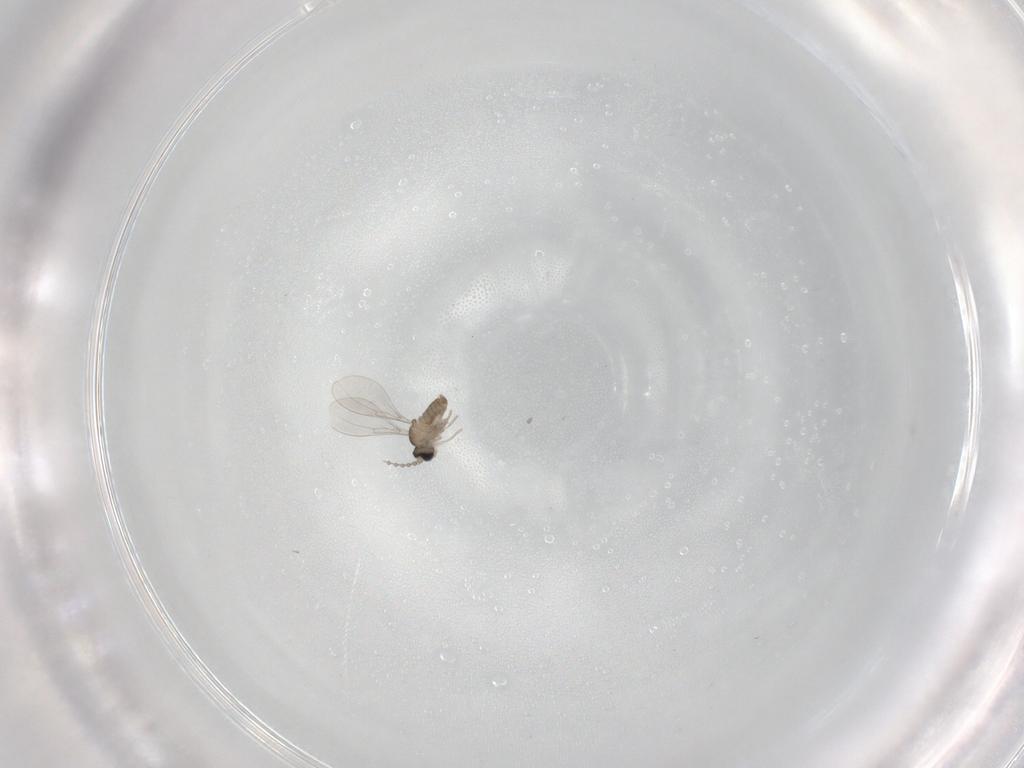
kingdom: Animalia
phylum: Arthropoda
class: Insecta
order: Diptera
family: Cecidomyiidae
